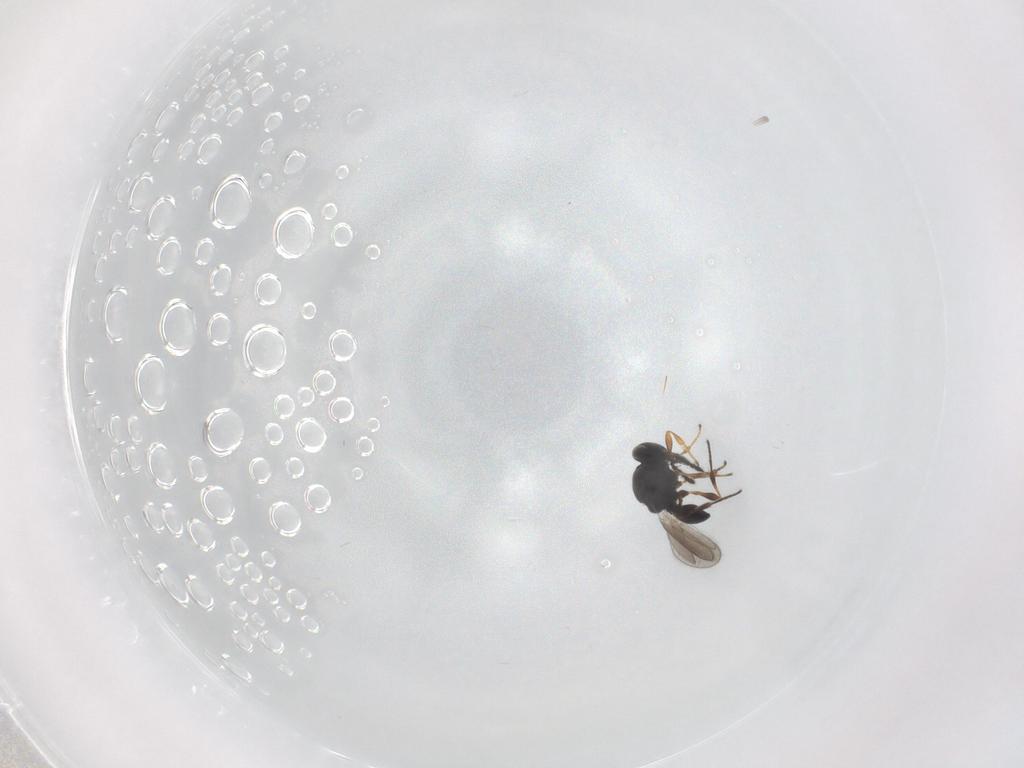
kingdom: Animalia
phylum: Arthropoda
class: Insecta
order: Hymenoptera
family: Platygastridae
